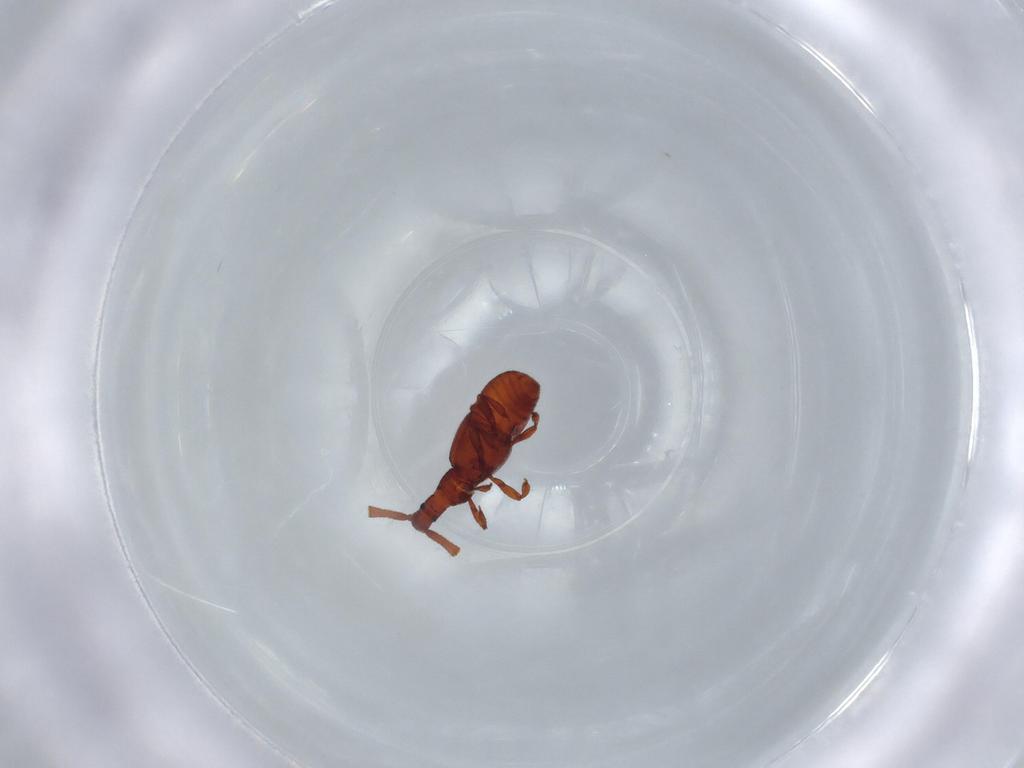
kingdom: Animalia
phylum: Arthropoda
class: Insecta
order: Coleoptera
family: Staphylinidae
